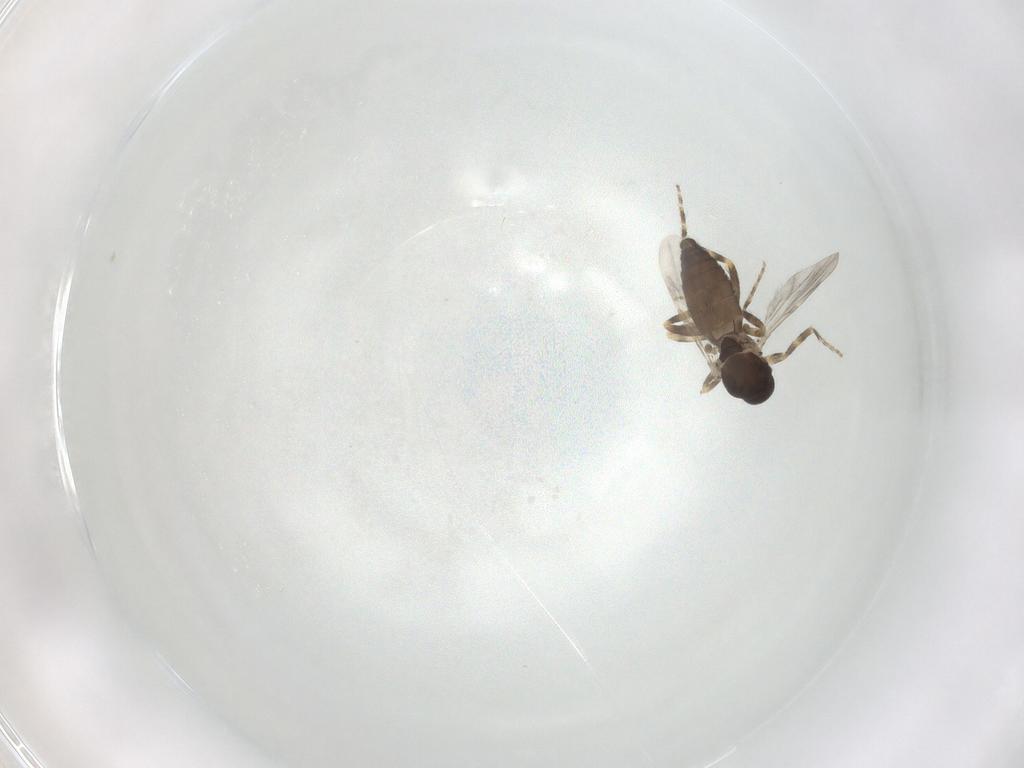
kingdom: Animalia
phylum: Arthropoda
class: Insecta
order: Diptera
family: Ceratopogonidae
